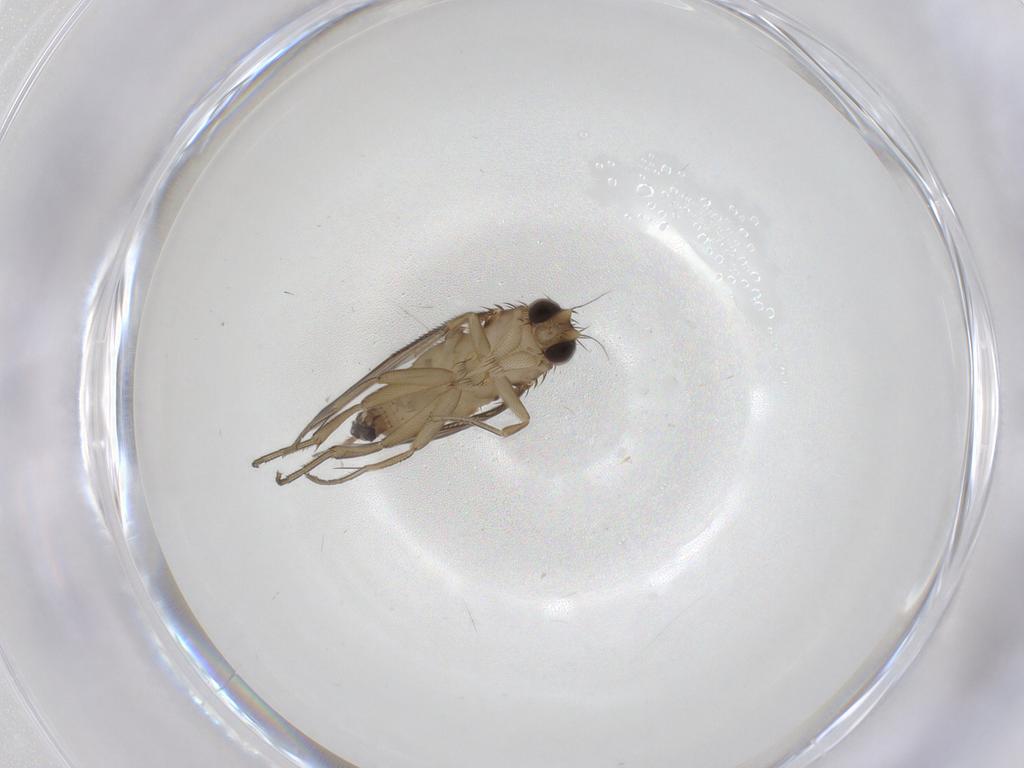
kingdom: Animalia
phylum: Arthropoda
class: Insecta
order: Diptera
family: Phoridae
